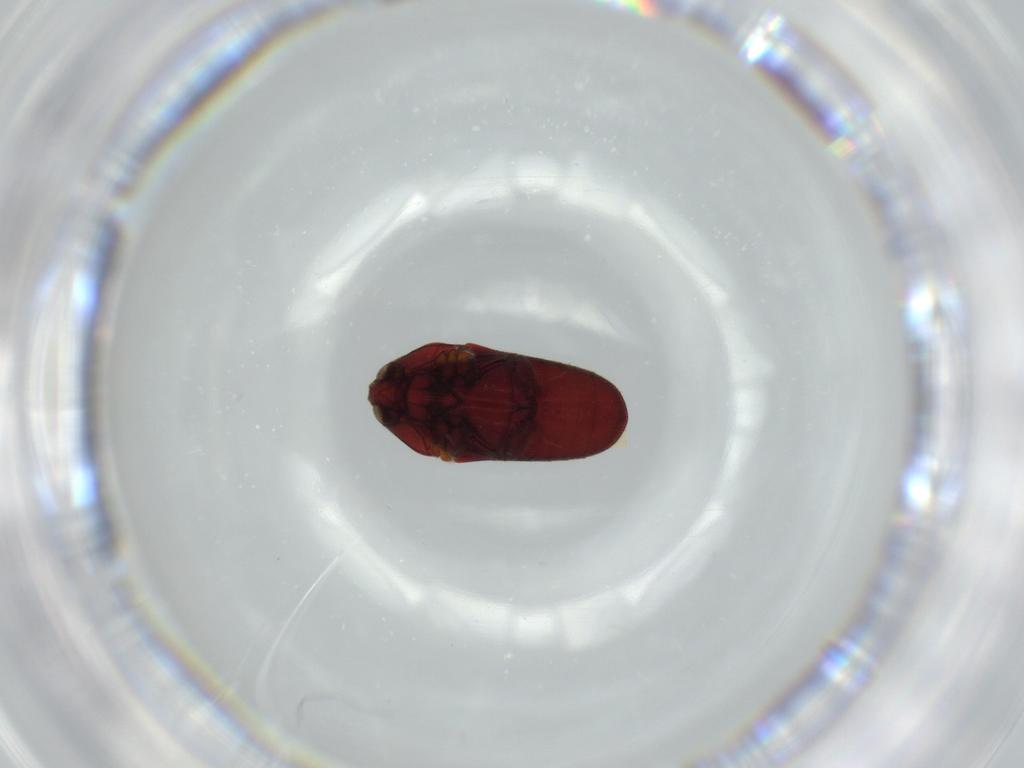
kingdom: Animalia
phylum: Arthropoda
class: Insecta
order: Coleoptera
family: Throscidae
